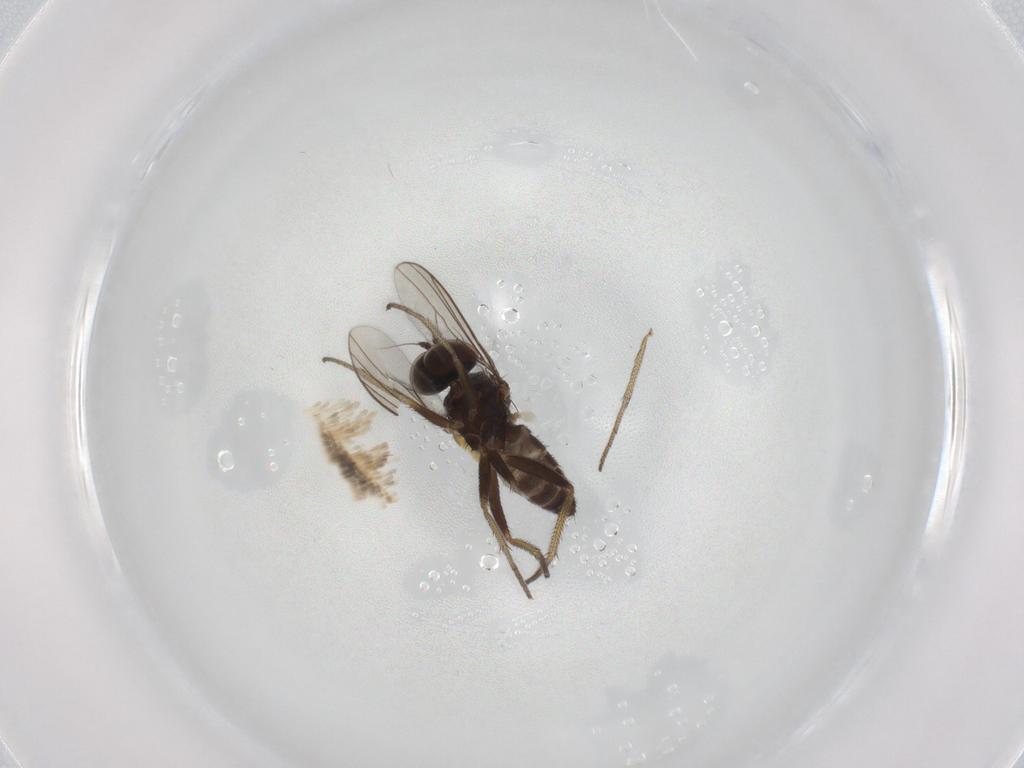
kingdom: Animalia
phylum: Arthropoda
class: Insecta
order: Diptera
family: Dolichopodidae
